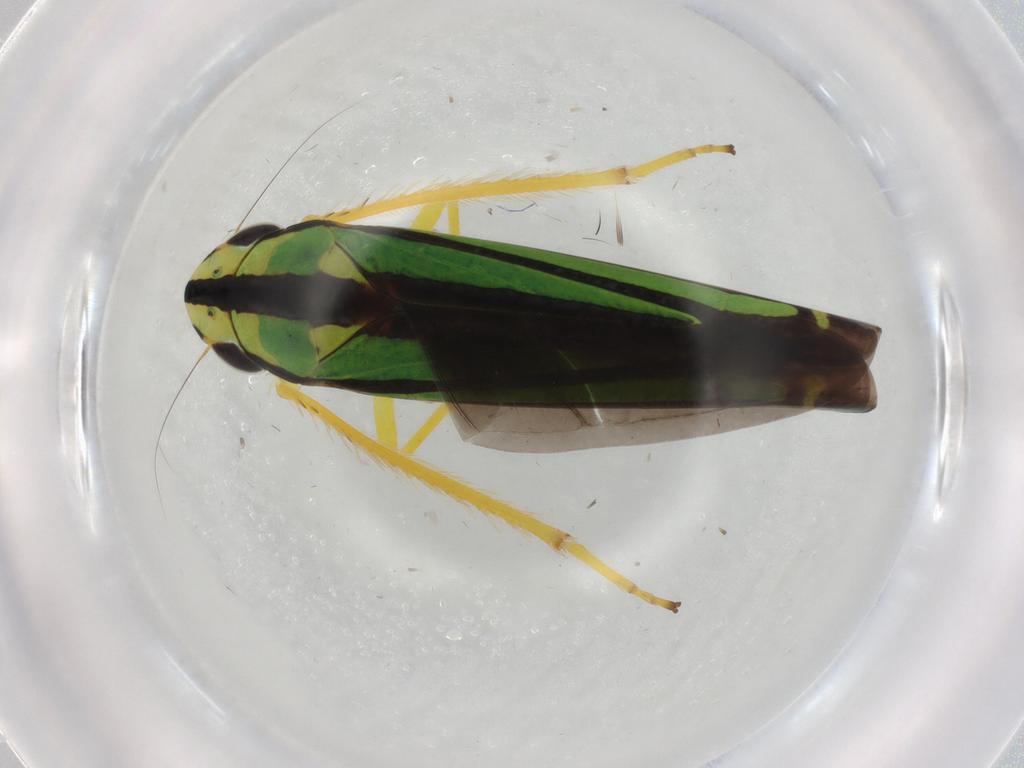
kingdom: Animalia
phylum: Arthropoda
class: Insecta
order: Hemiptera
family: Cicadellidae
